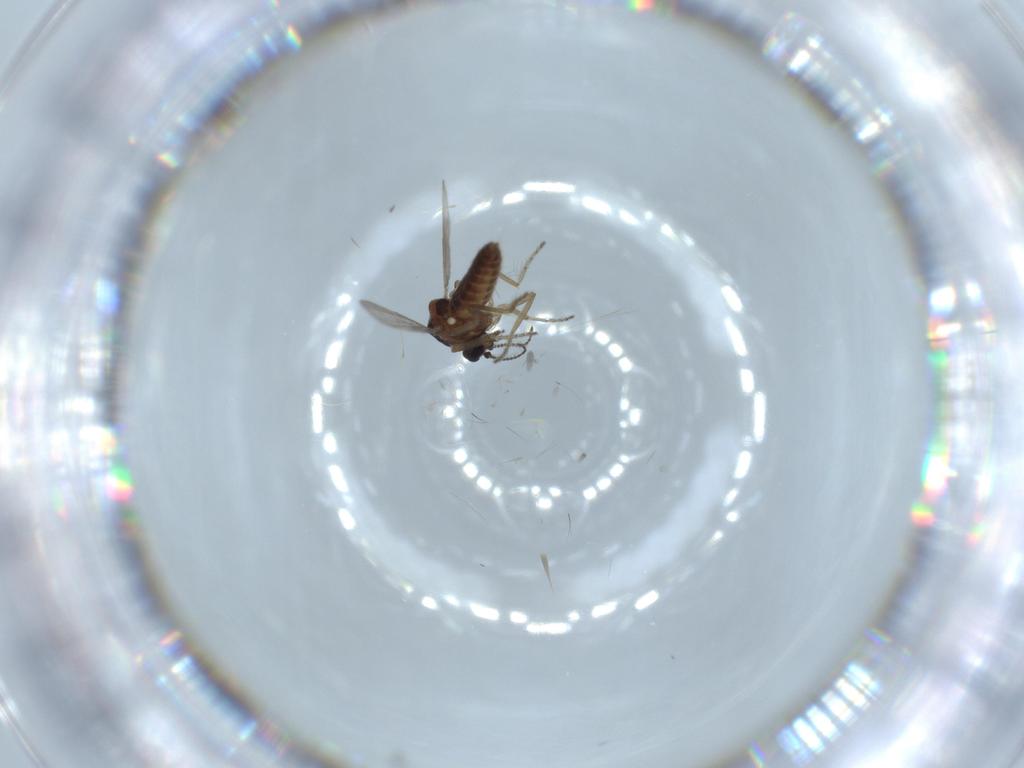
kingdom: Animalia
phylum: Arthropoda
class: Insecta
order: Diptera
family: Ceratopogonidae
